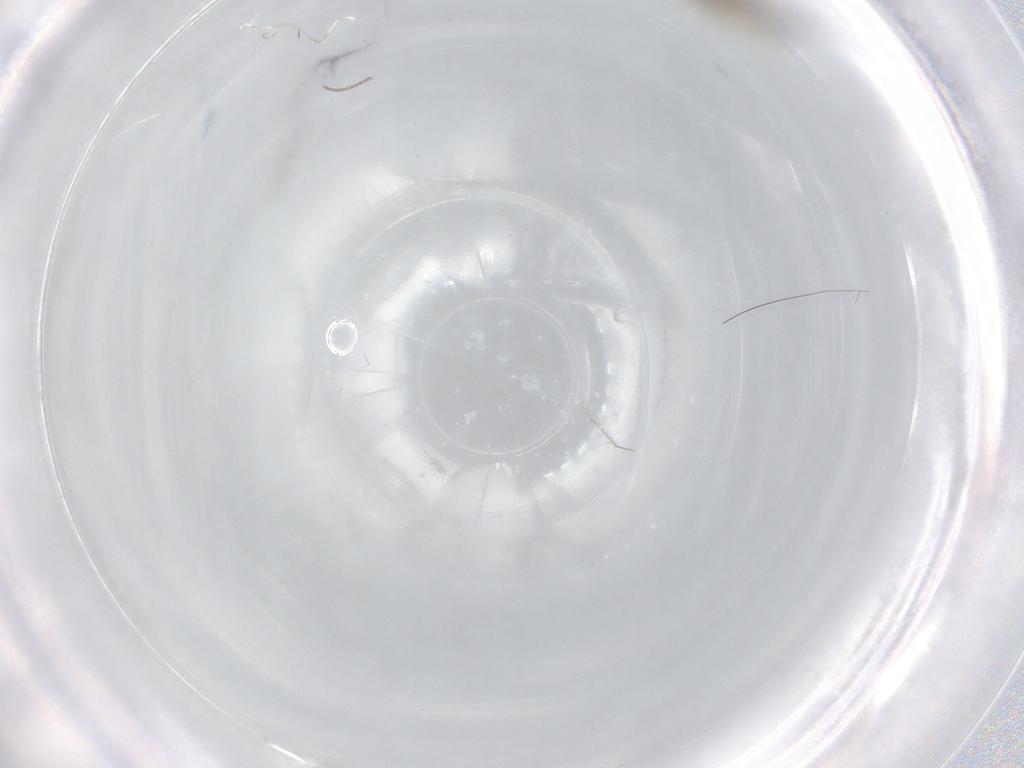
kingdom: Animalia
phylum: Arthropoda
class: Insecta
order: Diptera
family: Cecidomyiidae
